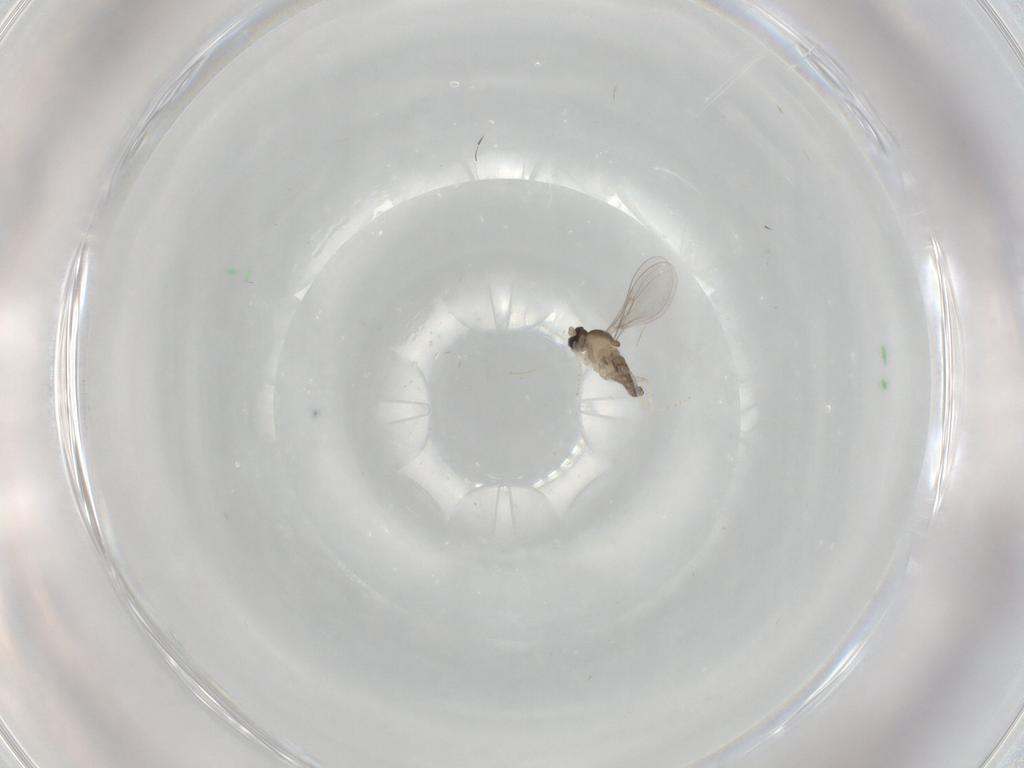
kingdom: Animalia
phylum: Arthropoda
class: Insecta
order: Diptera
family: Cecidomyiidae
